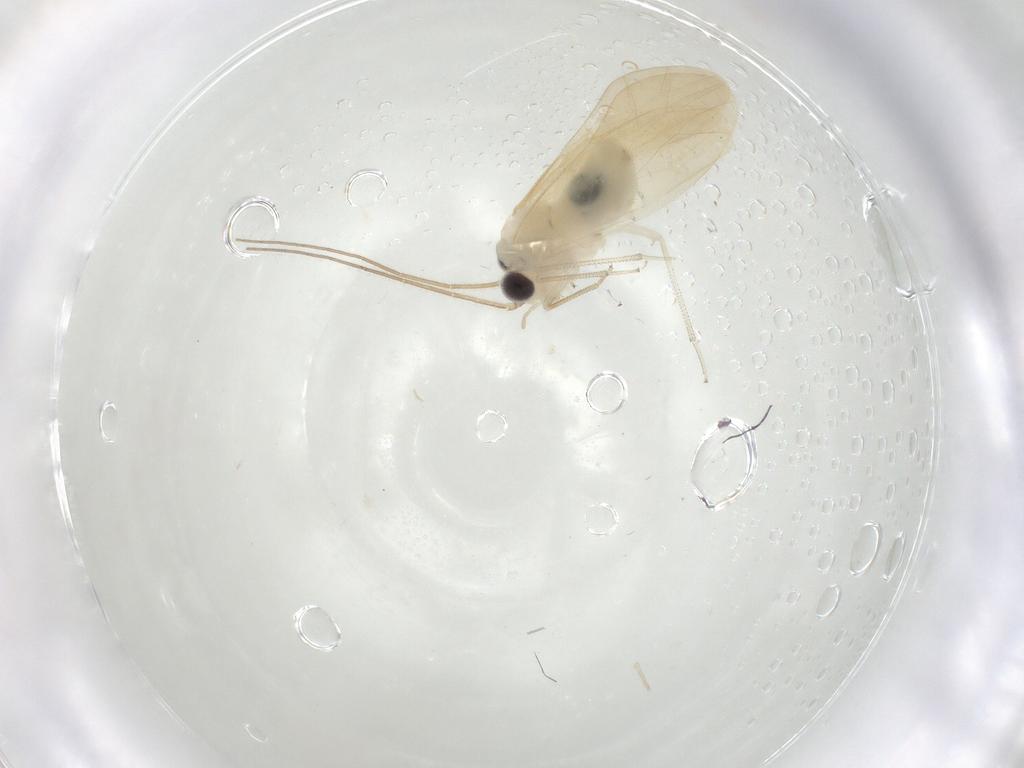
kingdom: Animalia
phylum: Arthropoda
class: Insecta
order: Psocodea
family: Caeciliusidae
